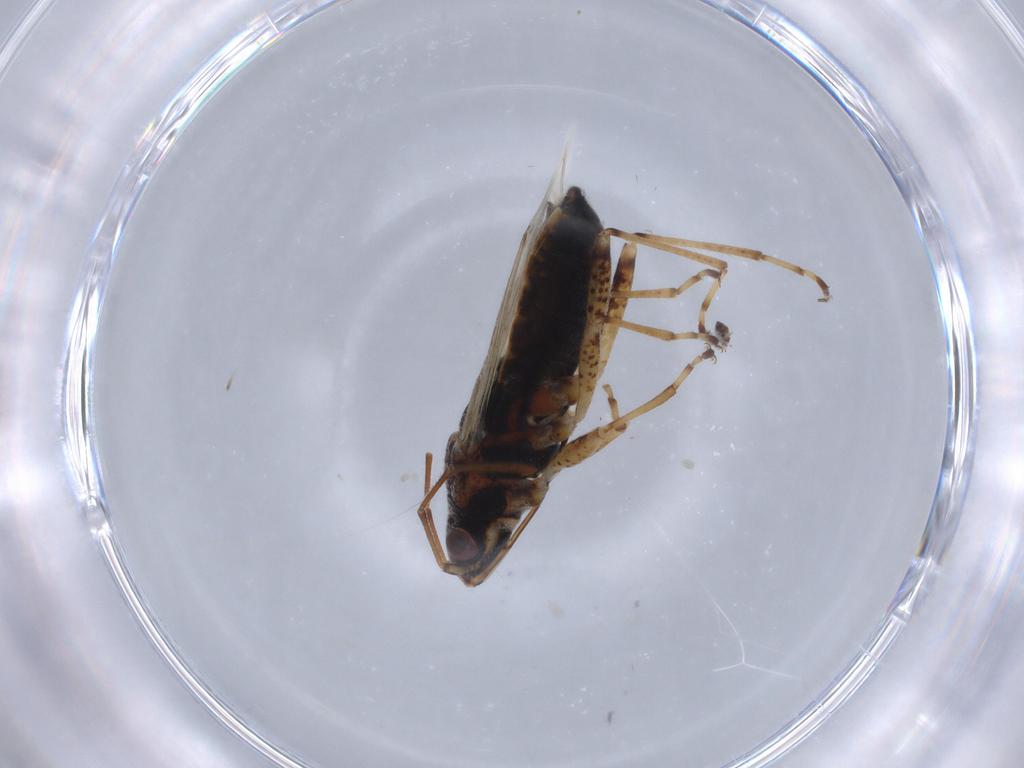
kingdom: Animalia
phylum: Arthropoda
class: Insecta
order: Hemiptera
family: Lygaeidae
